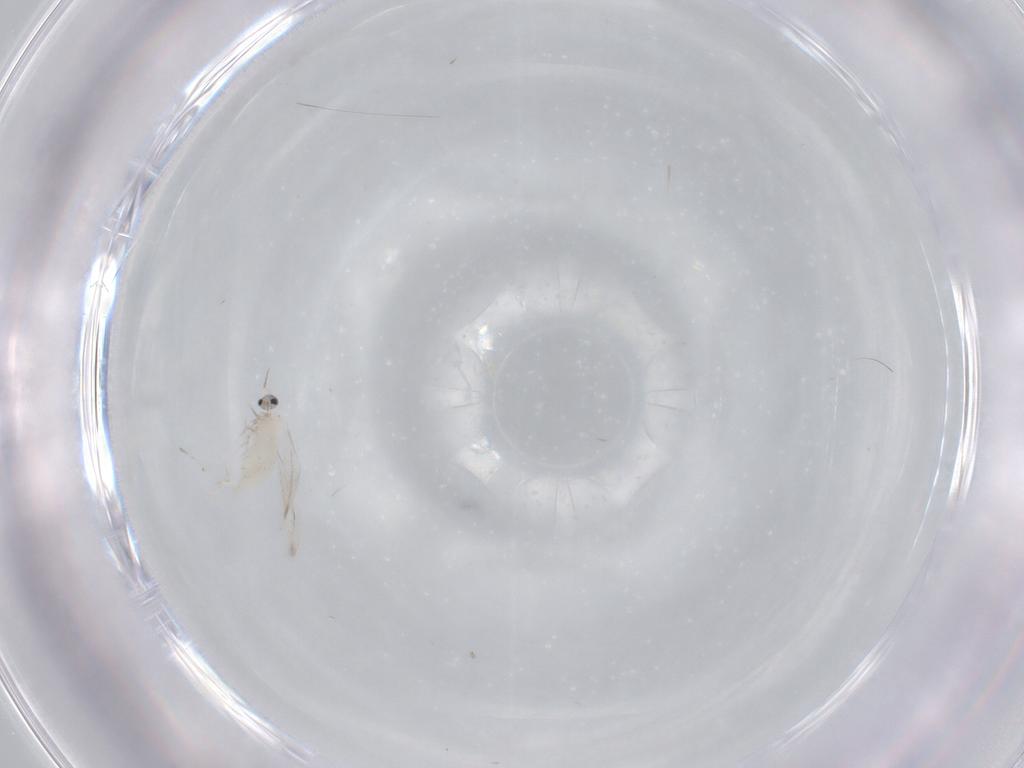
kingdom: Animalia
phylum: Arthropoda
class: Insecta
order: Diptera
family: Cecidomyiidae
